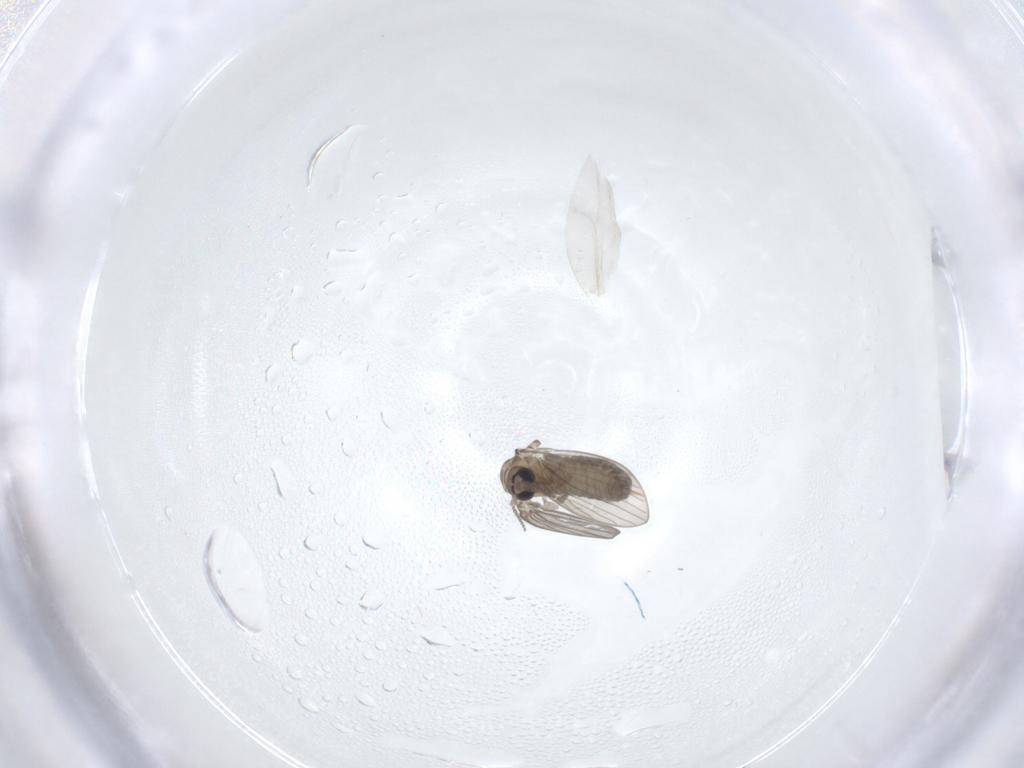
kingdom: Animalia
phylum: Arthropoda
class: Insecta
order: Diptera
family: Psychodidae
